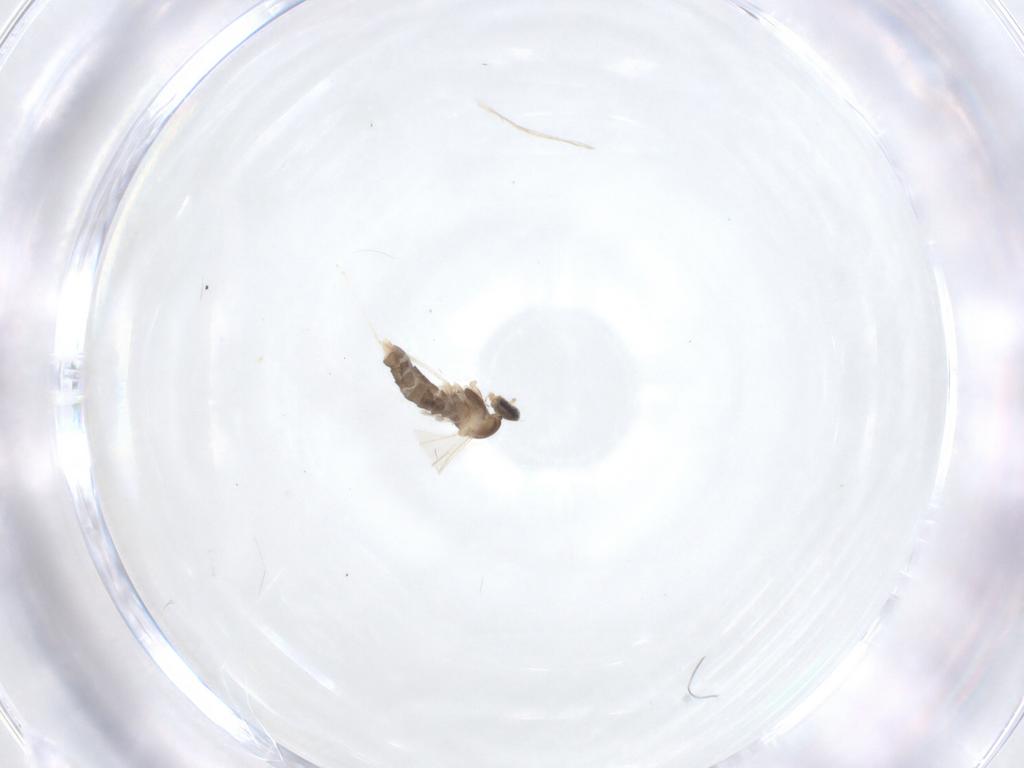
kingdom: Animalia
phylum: Arthropoda
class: Insecta
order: Diptera
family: Cecidomyiidae
